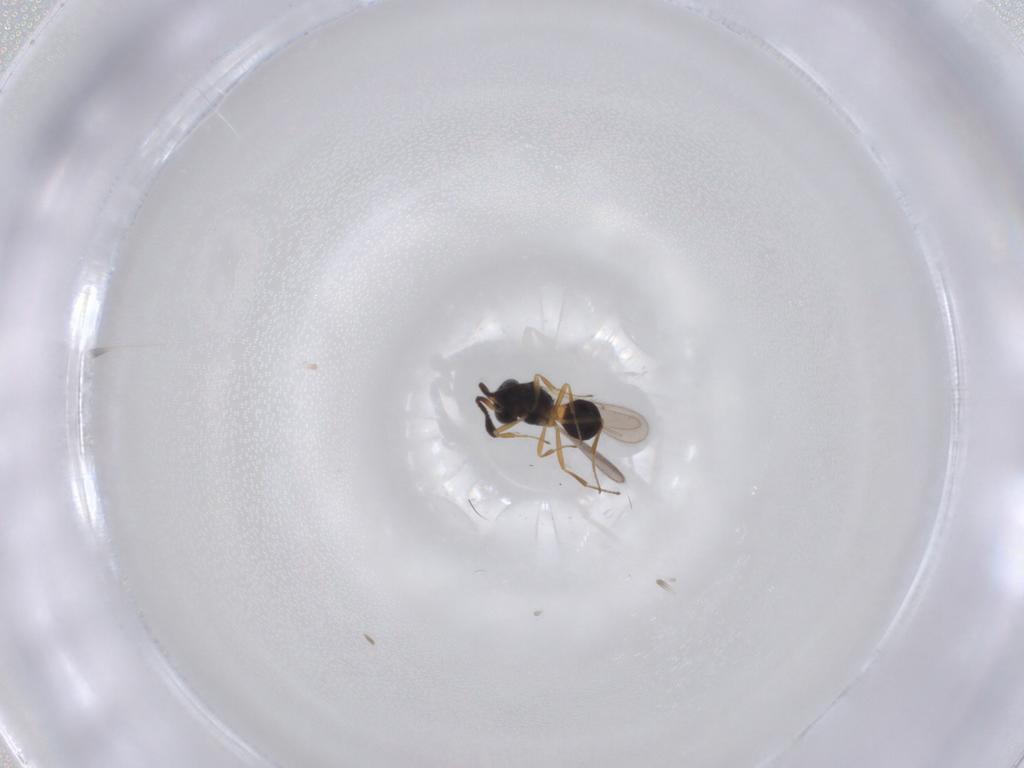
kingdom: Animalia
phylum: Arthropoda
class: Insecta
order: Hymenoptera
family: Scelionidae
